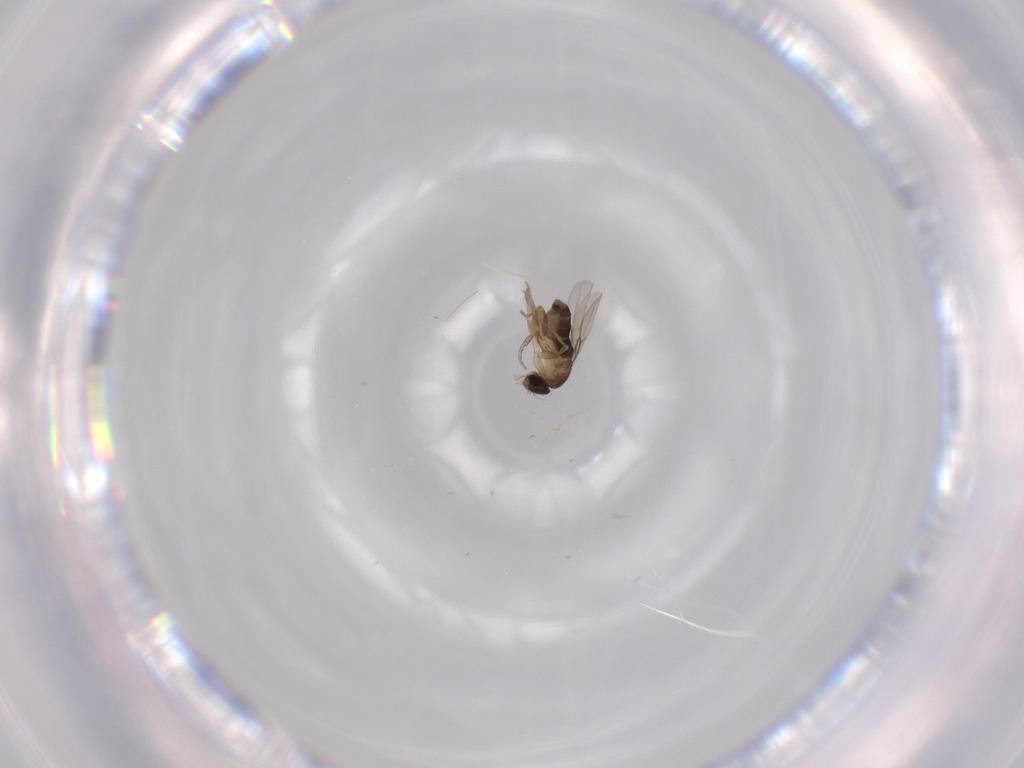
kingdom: Animalia
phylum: Arthropoda
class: Insecta
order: Diptera
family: Phoridae
